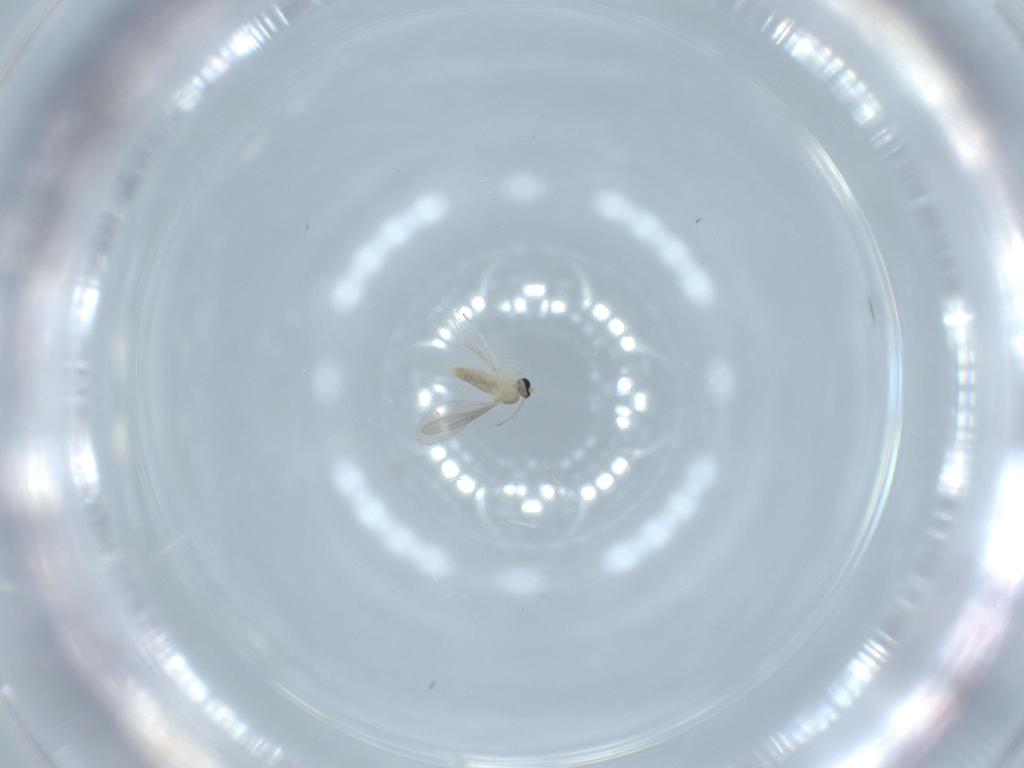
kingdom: Animalia
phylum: Arthropoda
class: Insecta
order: Diptera
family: Cecidomyiidae
